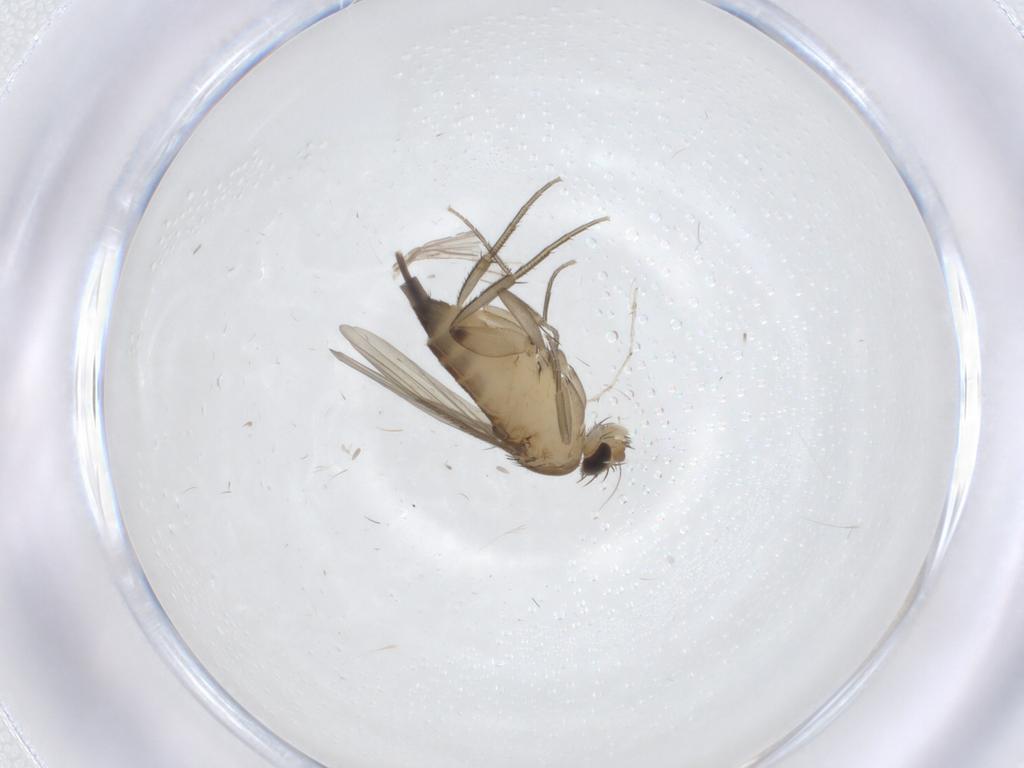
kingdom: Animalia
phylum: Arthropoda
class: Insecta
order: Diptera
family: Phoridae
